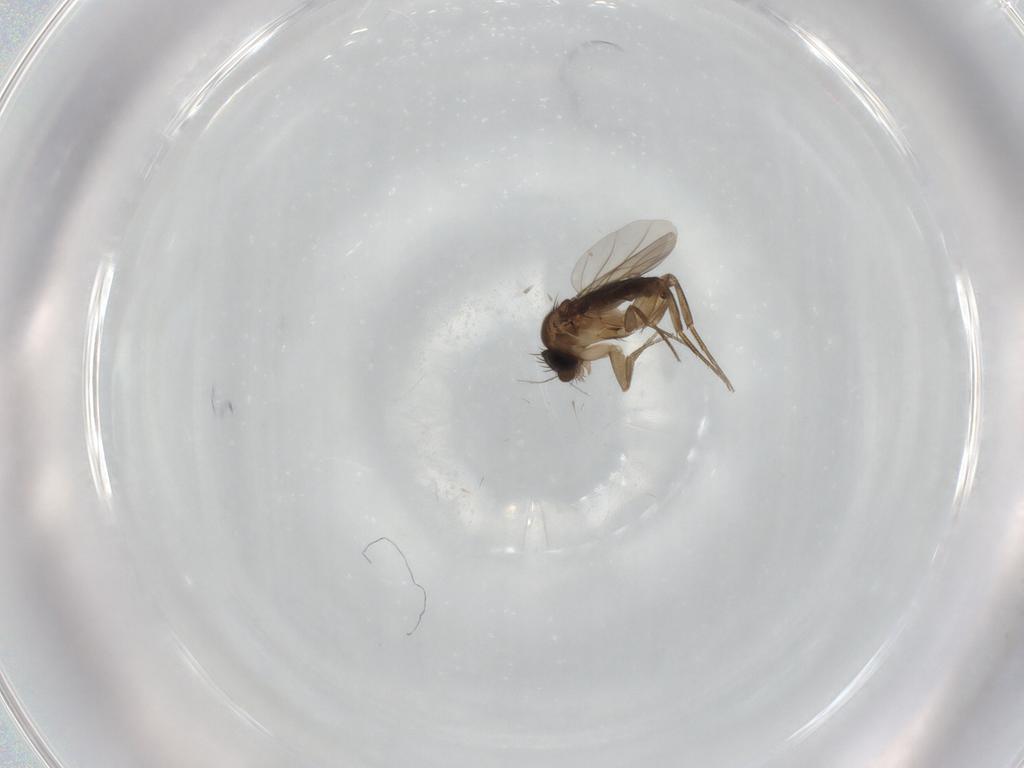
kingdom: Animalia
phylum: Arthropoda
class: Insecta
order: Diptera
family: Phoridae
